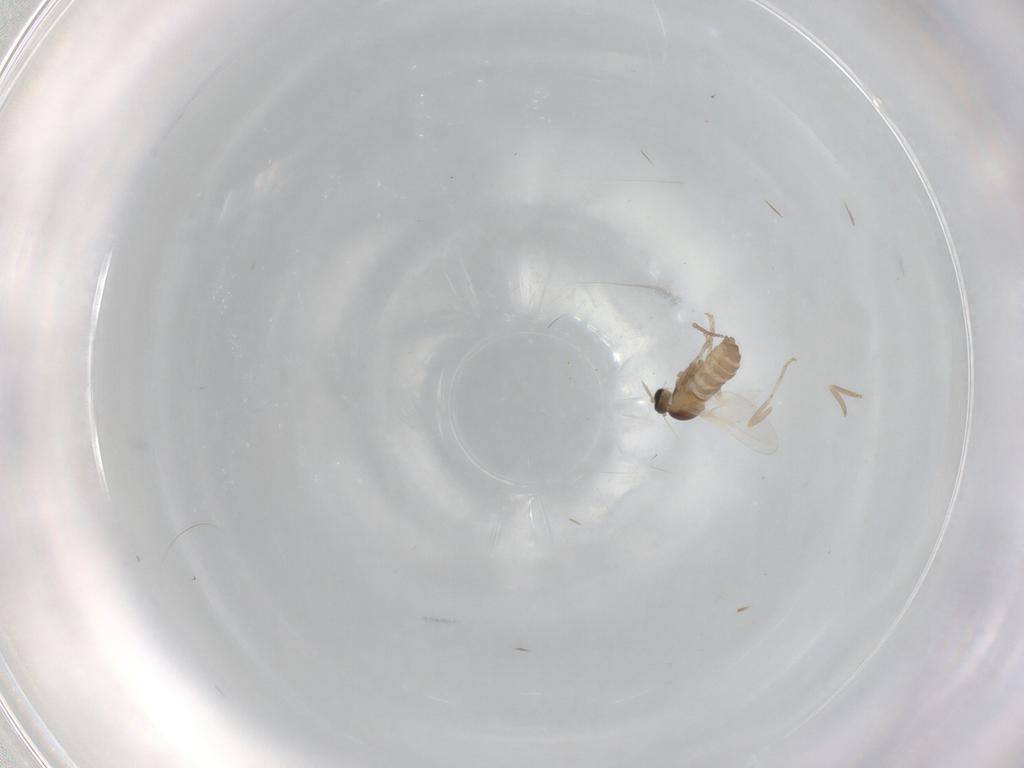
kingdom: Animalia
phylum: Arthropoda
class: Insecta
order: Diptera
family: Cecidomyiidae
